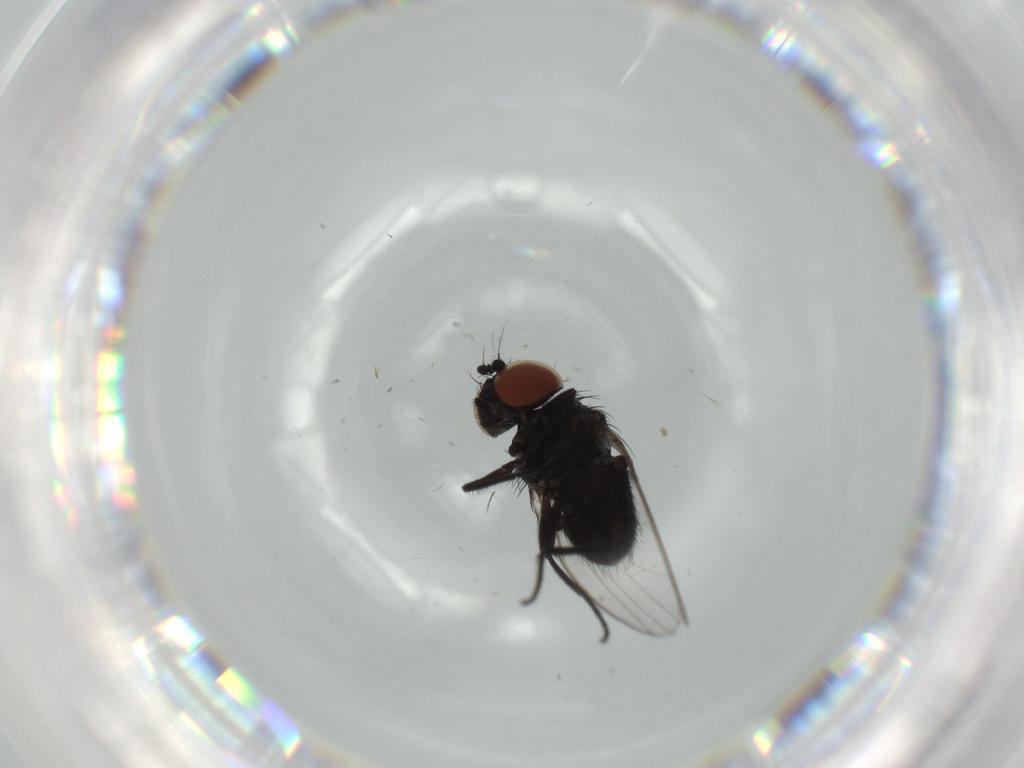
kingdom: Animalia
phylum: Arthropoda
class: Insecta
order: Diptera
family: Milichiidae
